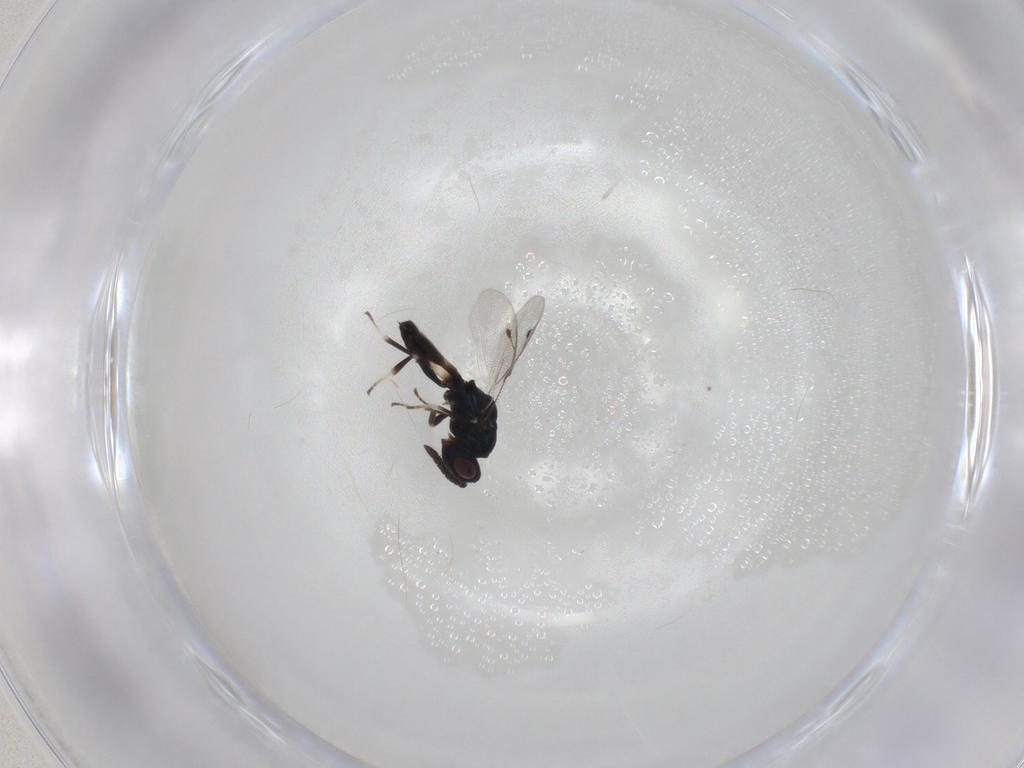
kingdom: Animalia
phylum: Arthropoda
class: Insecta
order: Hymenoptera
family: Pteromalidae
